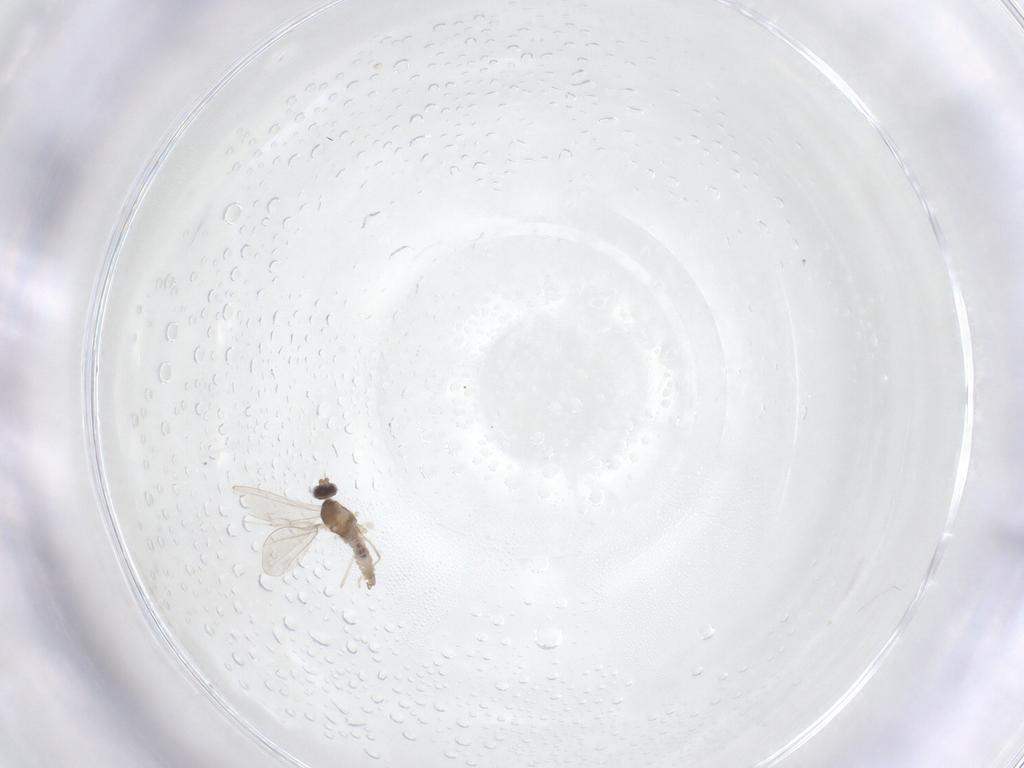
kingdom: Animalia
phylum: Arthropoda
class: Insecta
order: Diptera
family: Cecidomyiidae
